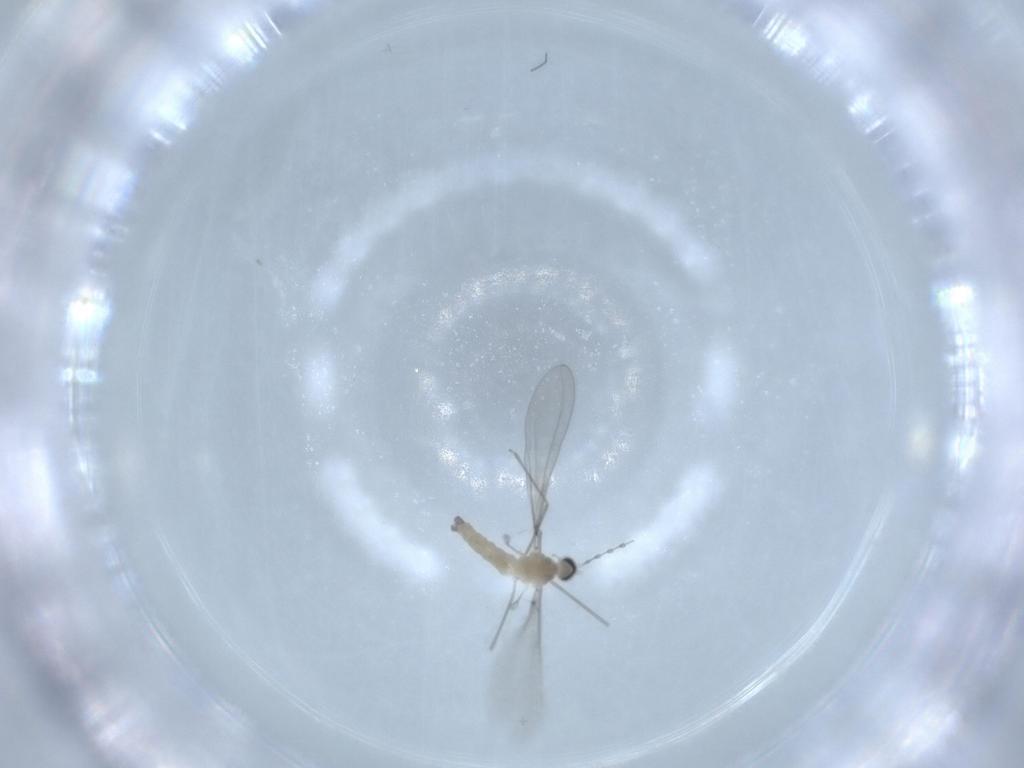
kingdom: Animalia
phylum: Arthropoda
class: Insecta
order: Diptera
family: Cecidomyiidae
